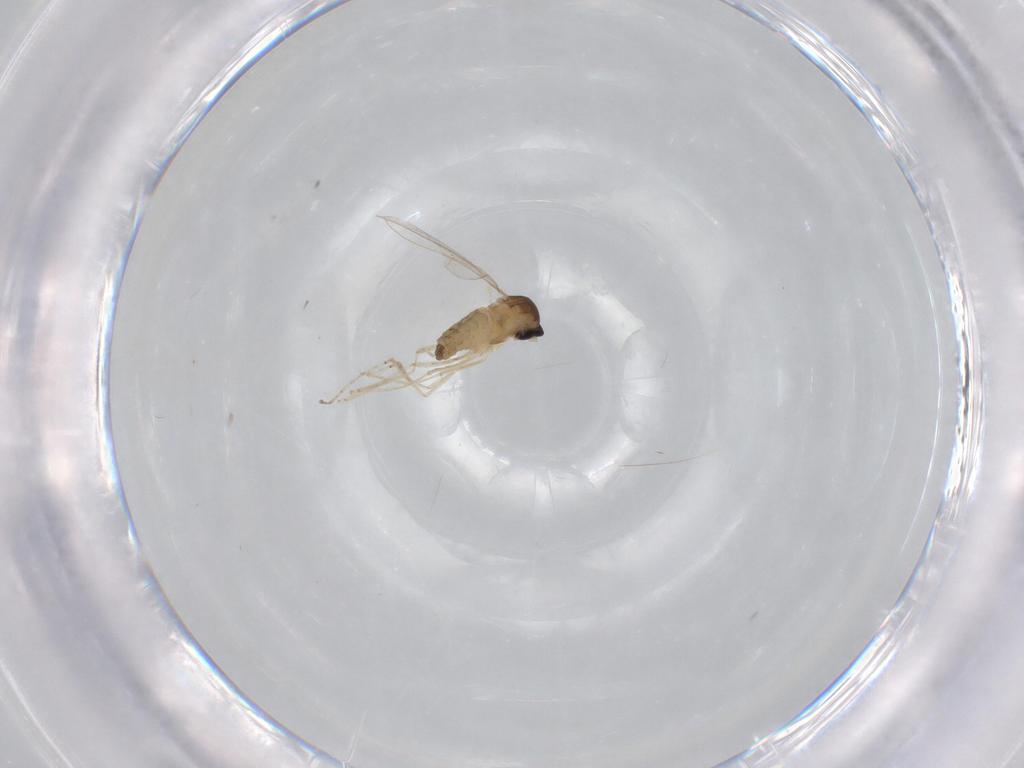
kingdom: Animalia
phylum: Arthropoda
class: Insecta
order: Diptera
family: Cecidomyiidae
